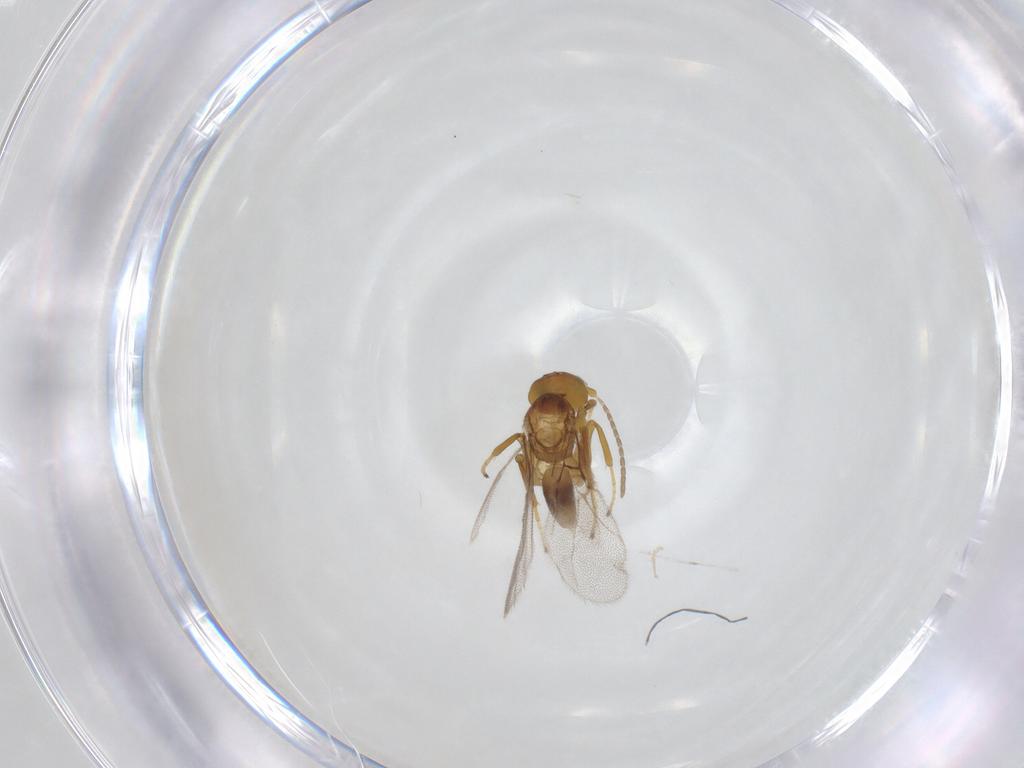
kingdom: Animalia
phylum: Arthropoda
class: Insecta
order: Hymenoptera
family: Cynipidae
